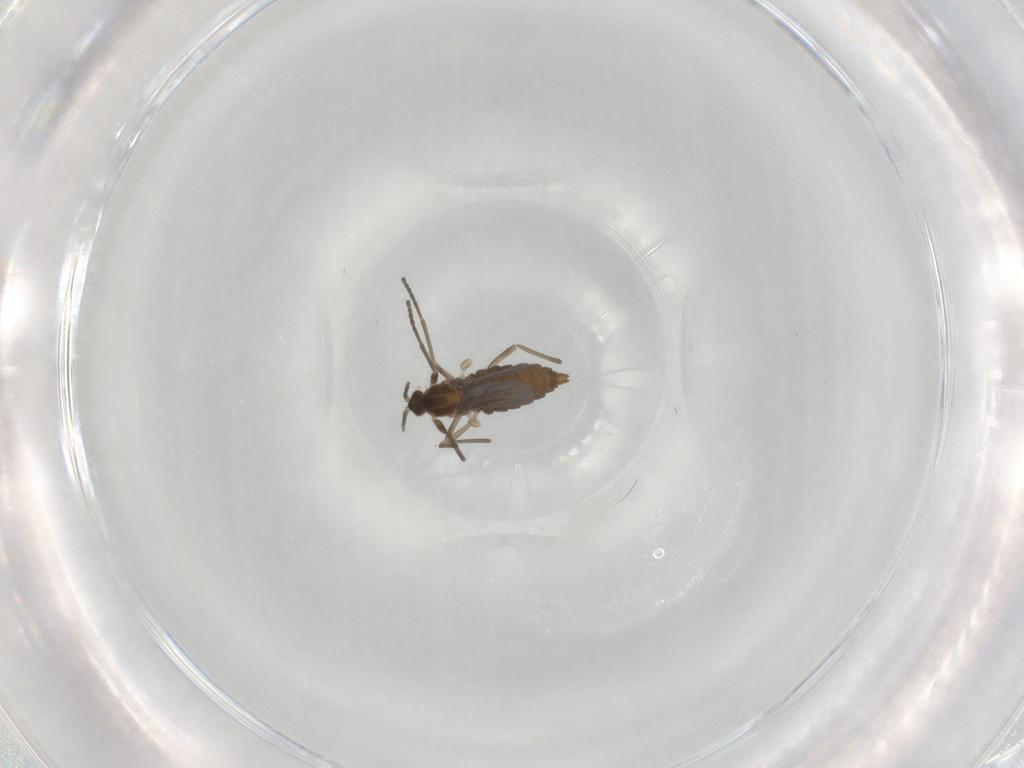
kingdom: Animalia
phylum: Arthropoda
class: Insecta
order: Diptera
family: Cecidomyiidae
